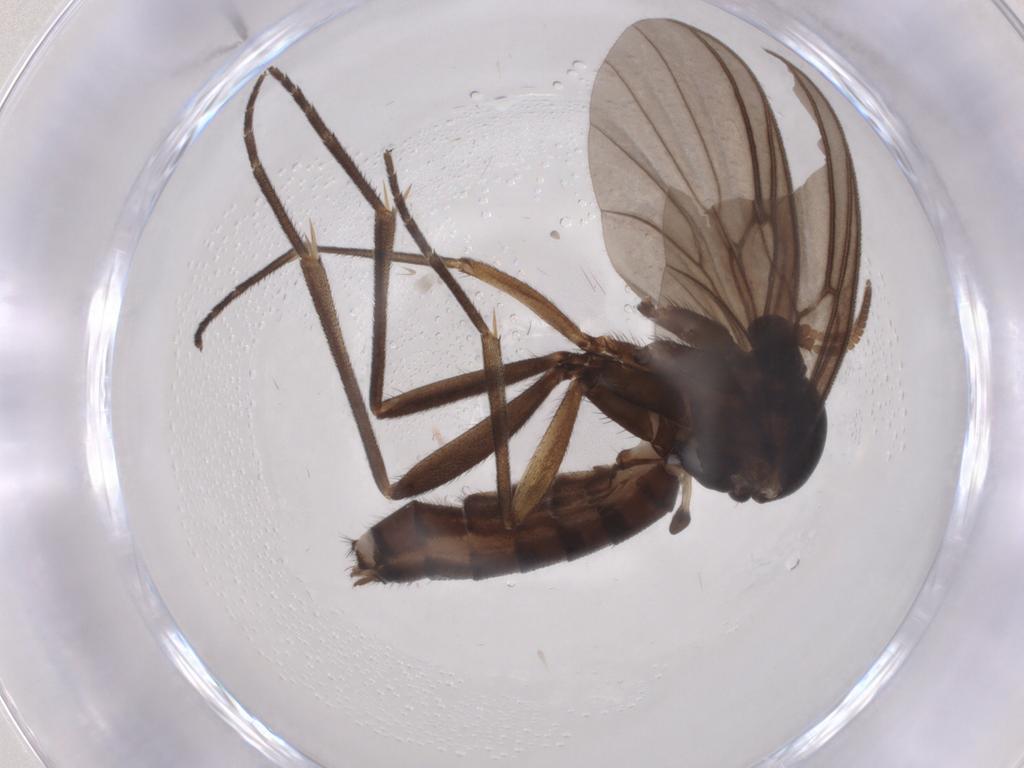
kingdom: Animalia
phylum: Arthropoda
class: Insecta
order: Diptera
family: Mycetophilidae
